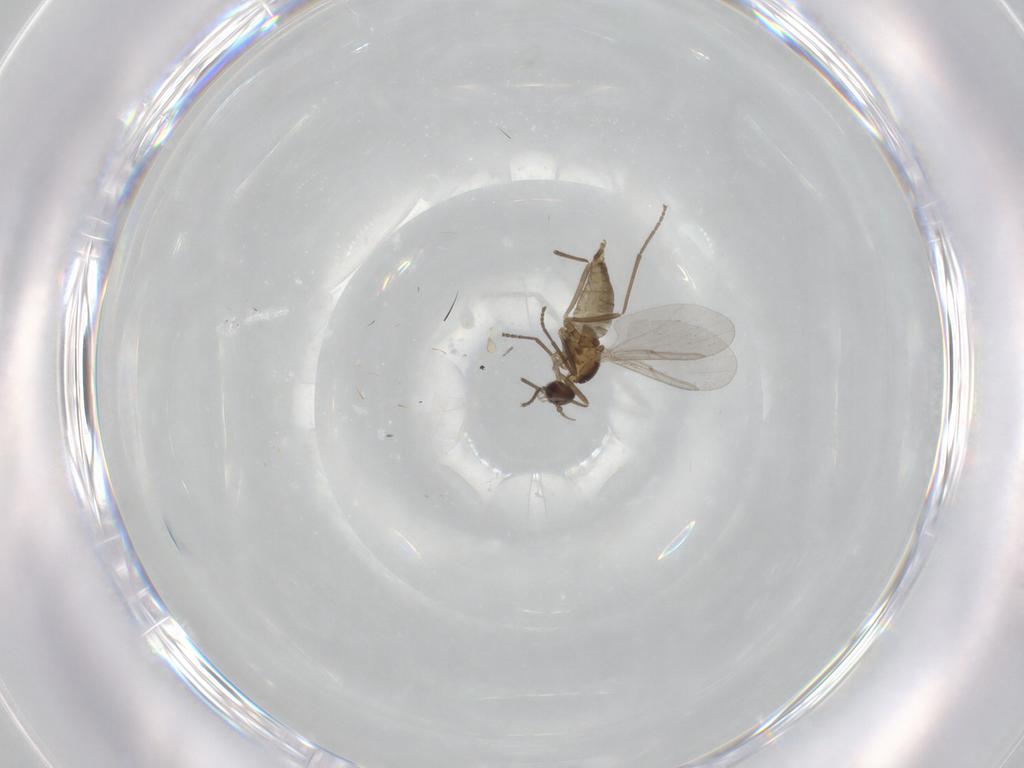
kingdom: Animalia
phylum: Arthropoda
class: Insecta
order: Diptera
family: Cecidomyiidae
